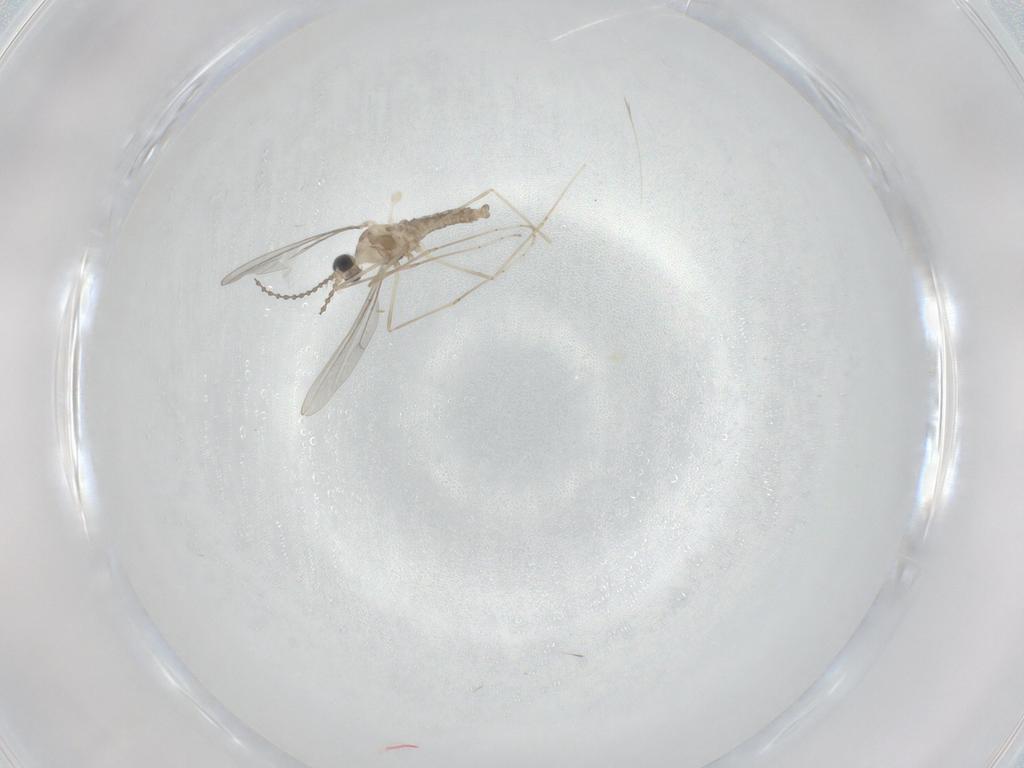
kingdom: Animalia
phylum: Arthropoda
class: Insecta
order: Diptera
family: Cecidomyiidae
